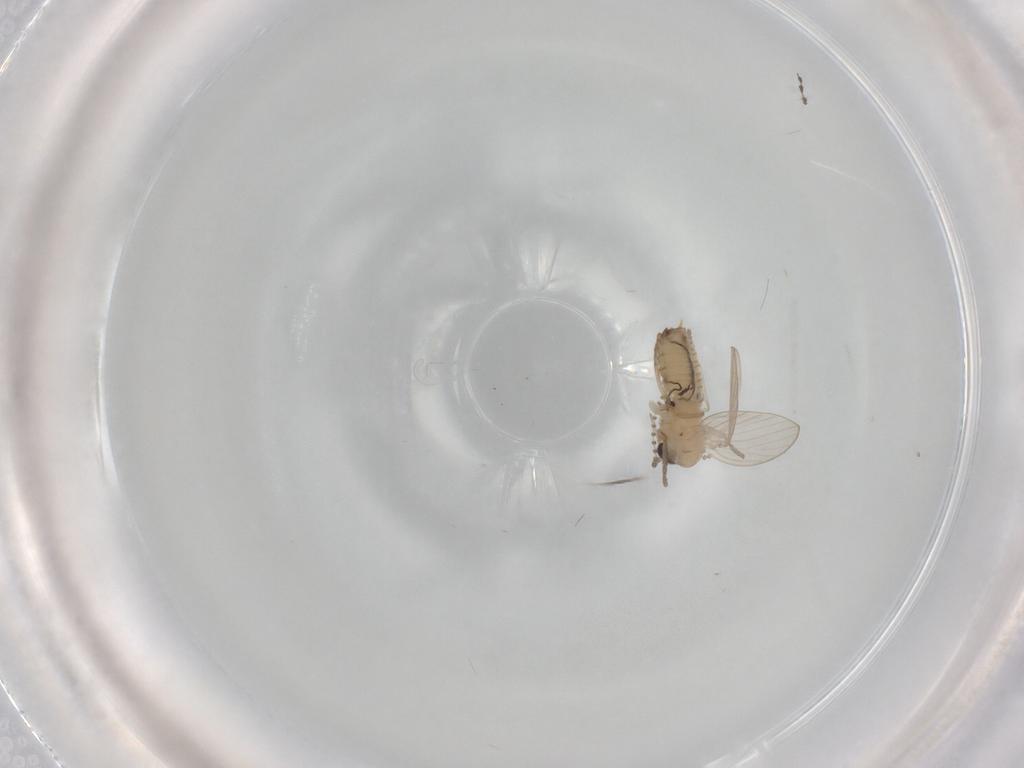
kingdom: Animalia
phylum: Arthropoda
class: Insecta
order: Diptera
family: Psychodidae
